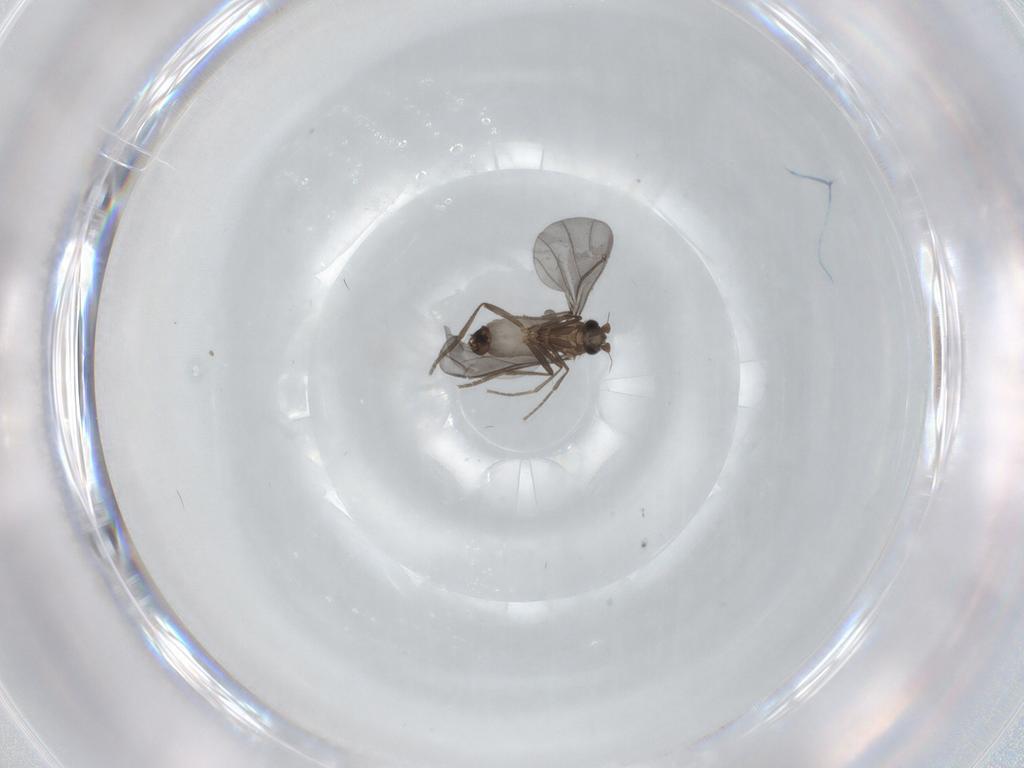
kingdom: Animalia
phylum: Arthropoda
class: Insecta
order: Diptera
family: Phoridae
